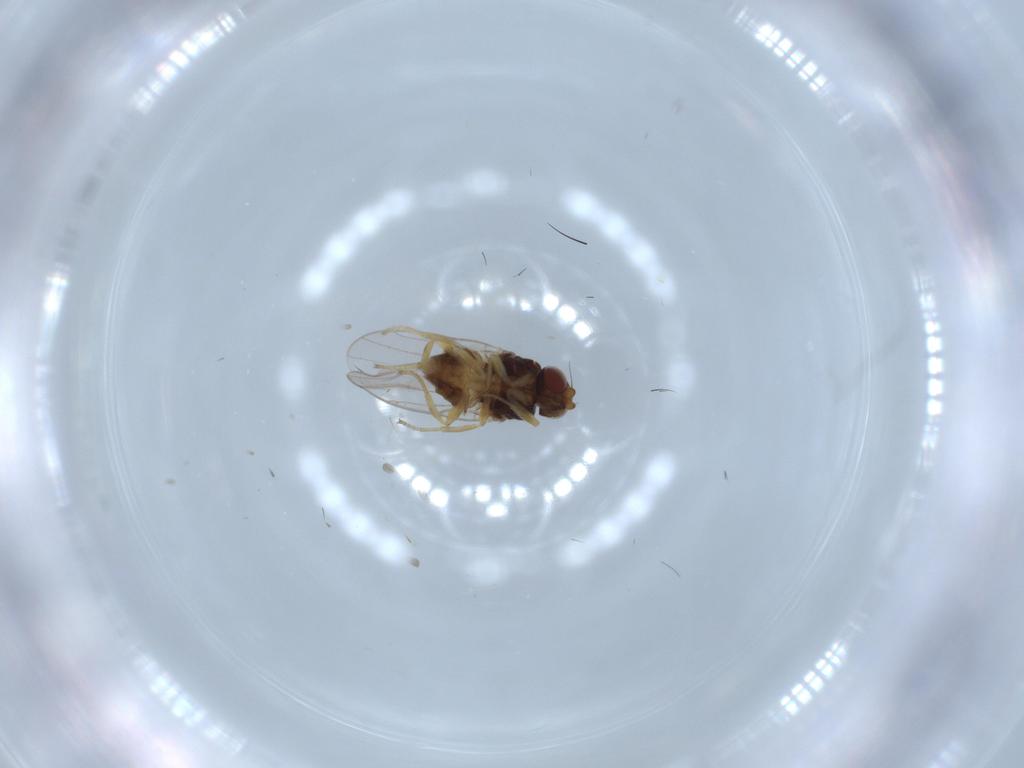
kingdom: Animalia
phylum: Arthropoda
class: Insecta
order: Diptera
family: Chloropidae
